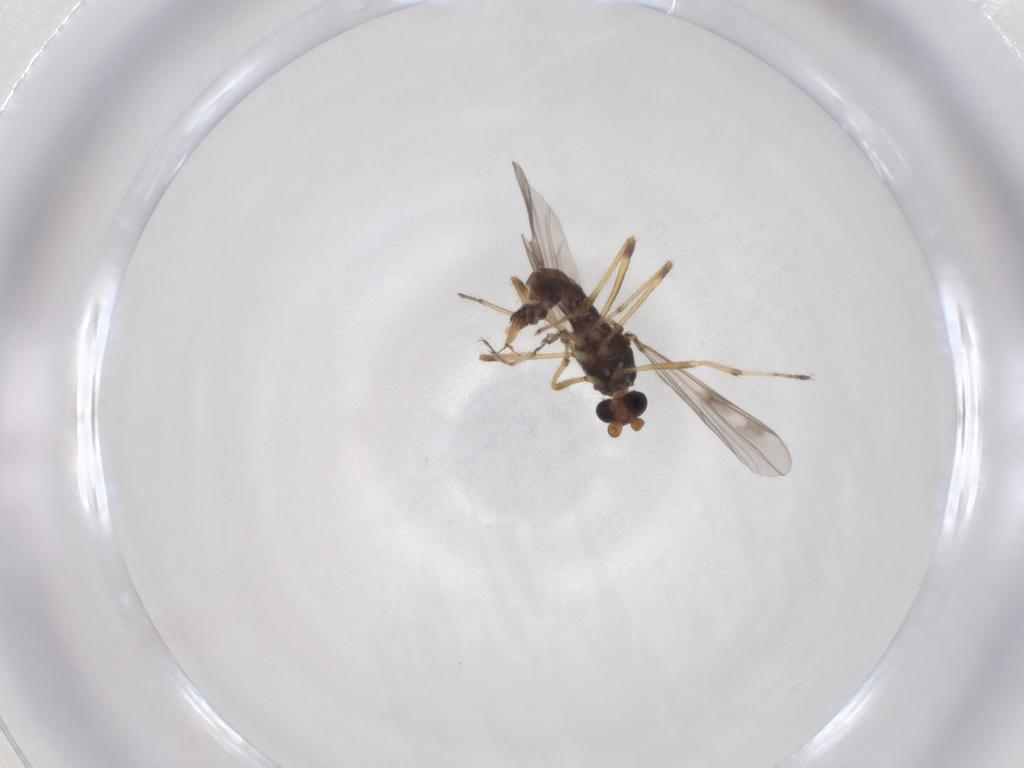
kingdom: Animalia
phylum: Arthropoda
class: Insecta
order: Diptera
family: Ceratopogonidae
